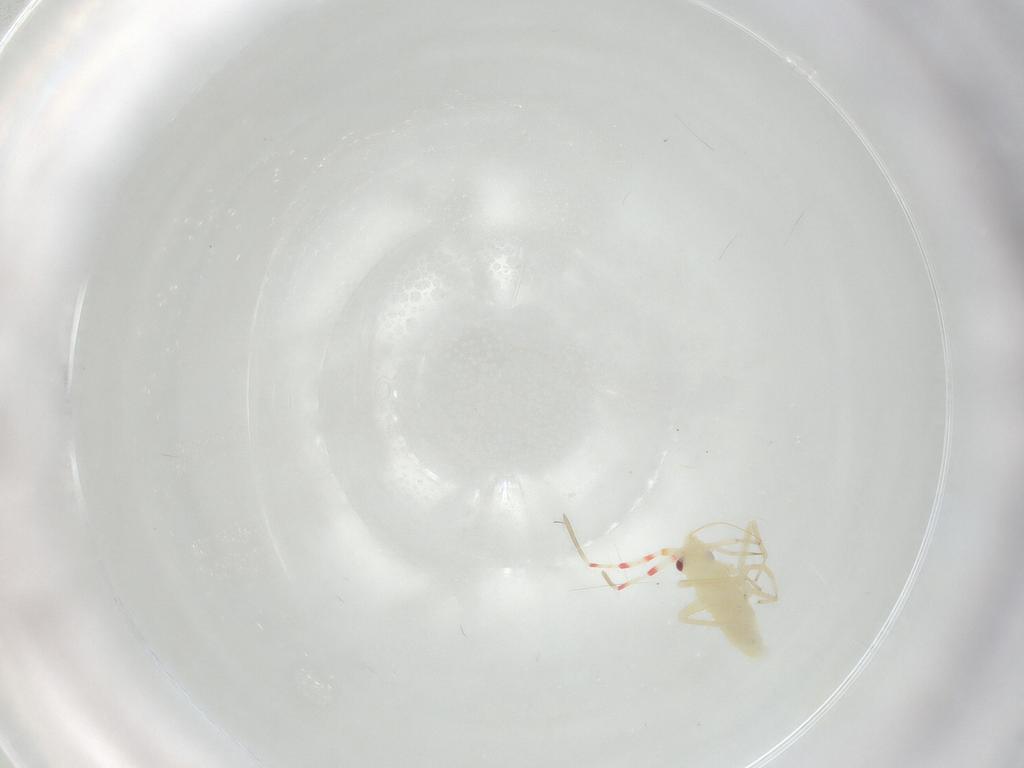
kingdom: Animalia
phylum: Arthropoda
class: Insecta
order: Hemiptera
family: Miridae
